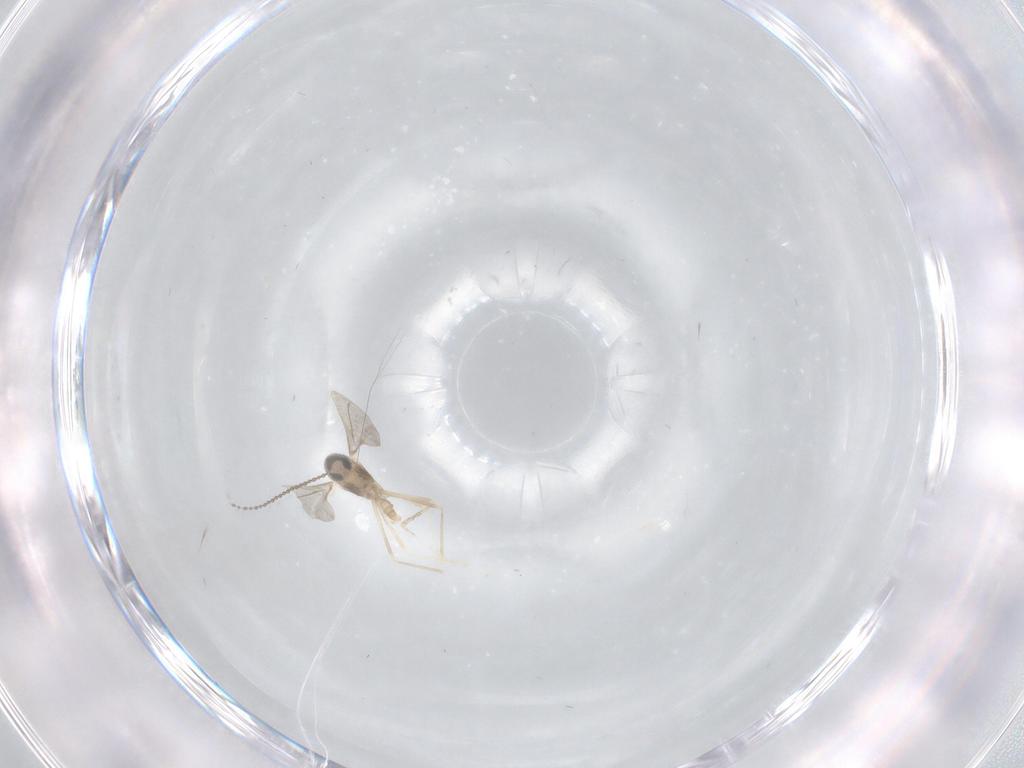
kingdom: Animalia
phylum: Arthropoda
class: Insecta
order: Diptera
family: Cecidomyiidae
